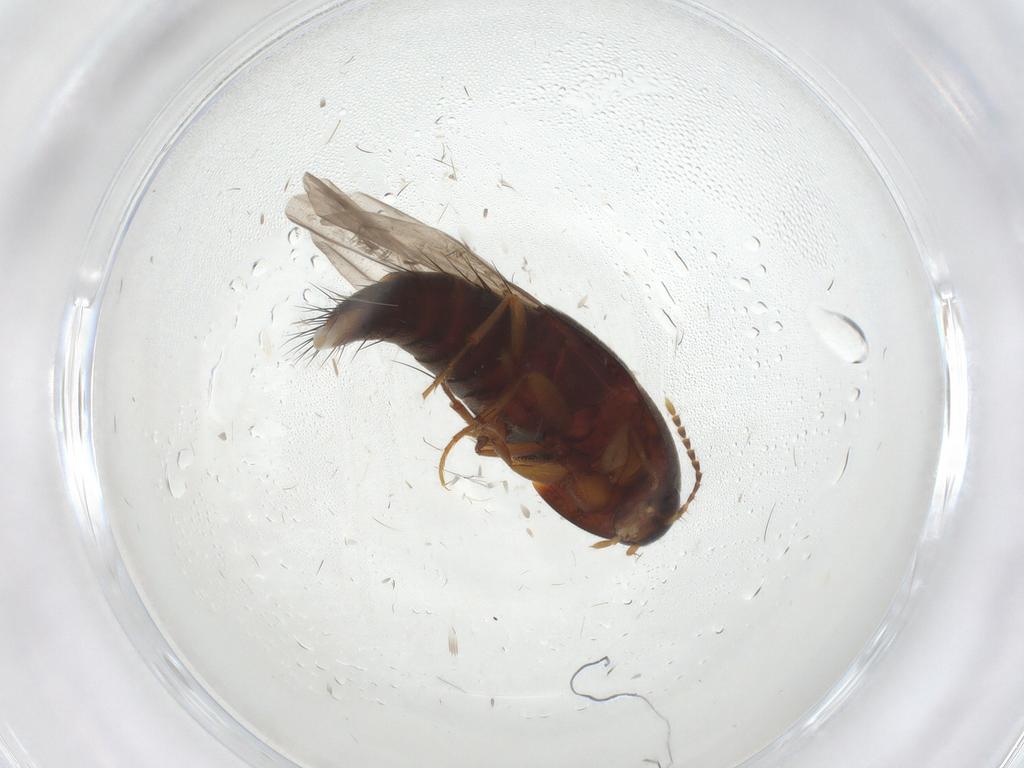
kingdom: Animalia
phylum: Arthropoda
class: Insecta
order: Coleoptera
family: Staphylinidae
